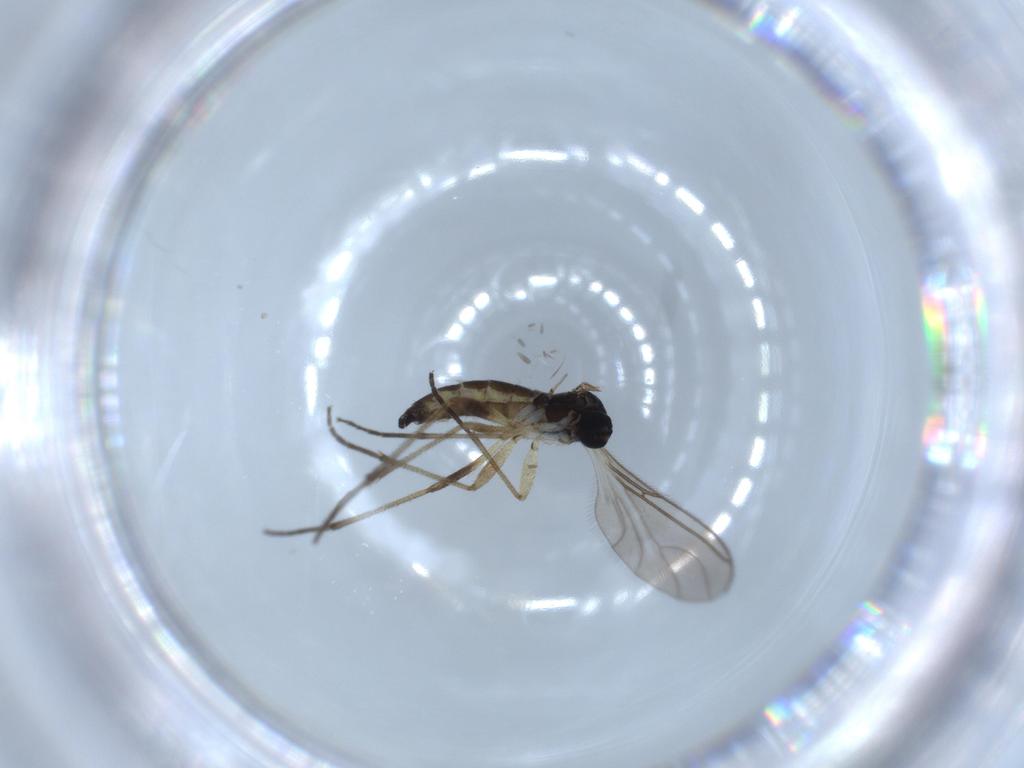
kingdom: Animalia
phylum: Arthropoda
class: Insecta
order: Diptera
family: Sciaridae
